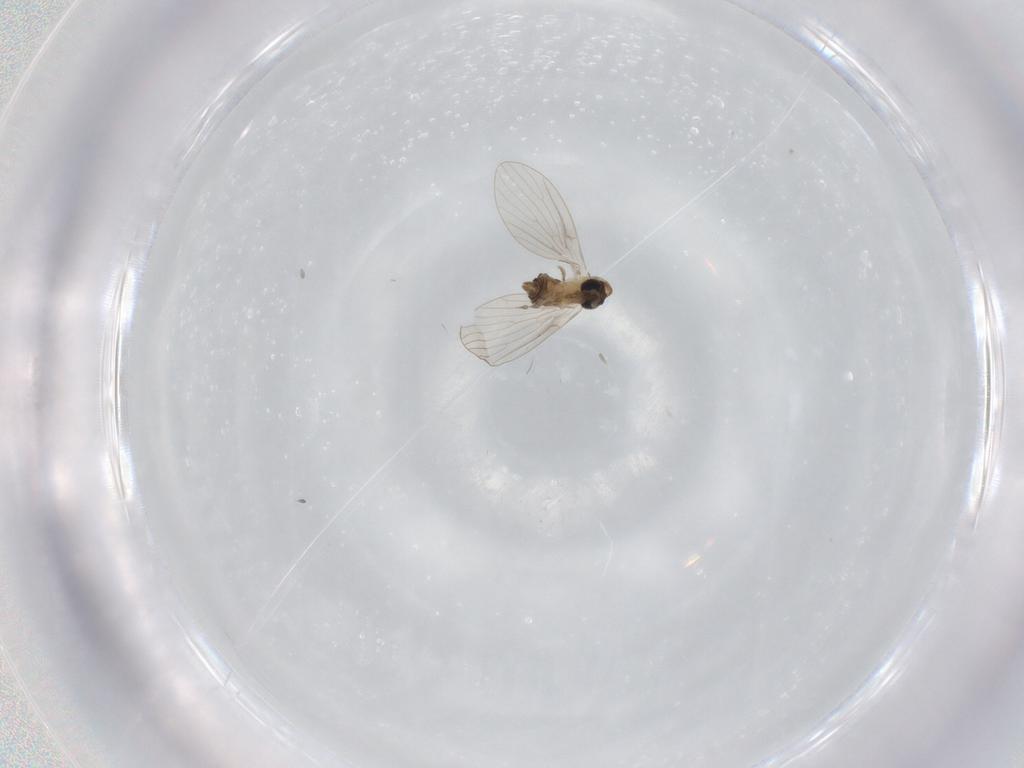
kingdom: Animalia
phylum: Arthropoda
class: Insecta
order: Diptera
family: Psychodidae
